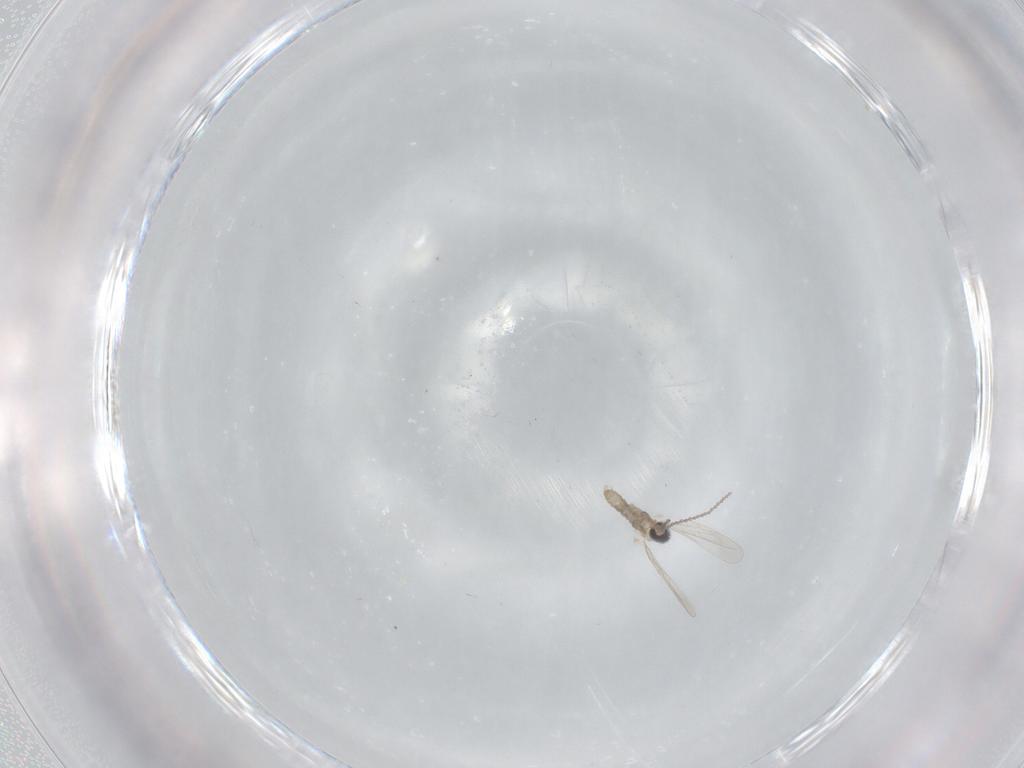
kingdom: Animalia
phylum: Arthropoda
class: Insecta
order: Diptera
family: Cecidomyiidae
